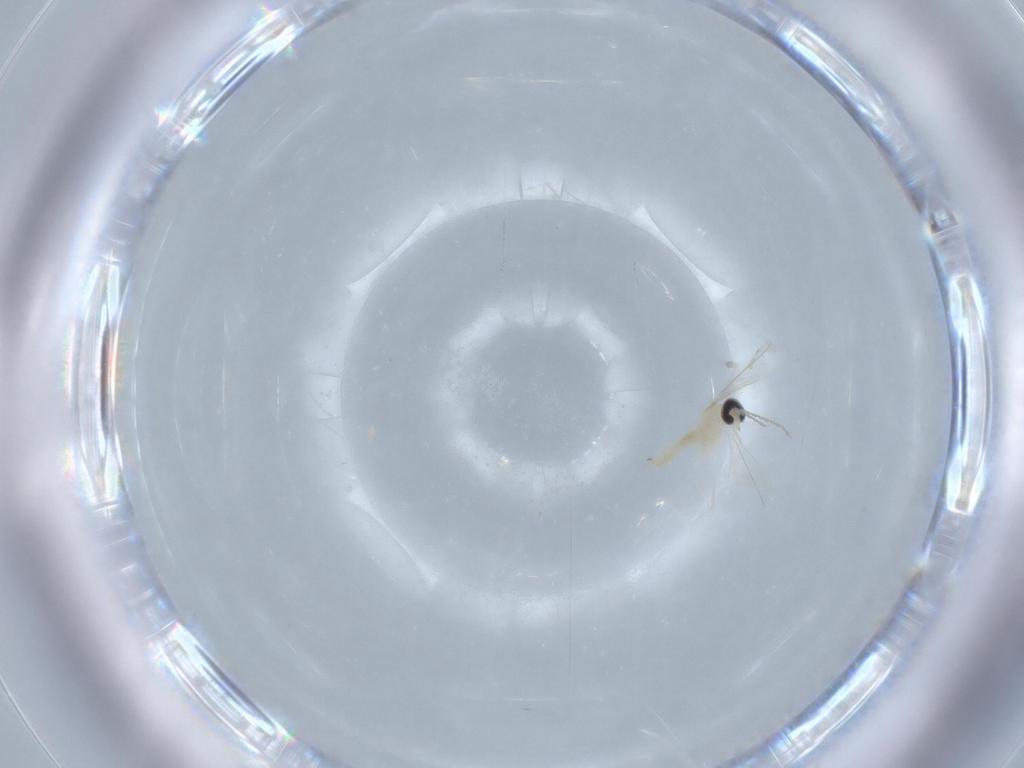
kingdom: Animalia
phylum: Arthropoda
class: Insecta
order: Diptera
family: Cecidomyiidae
